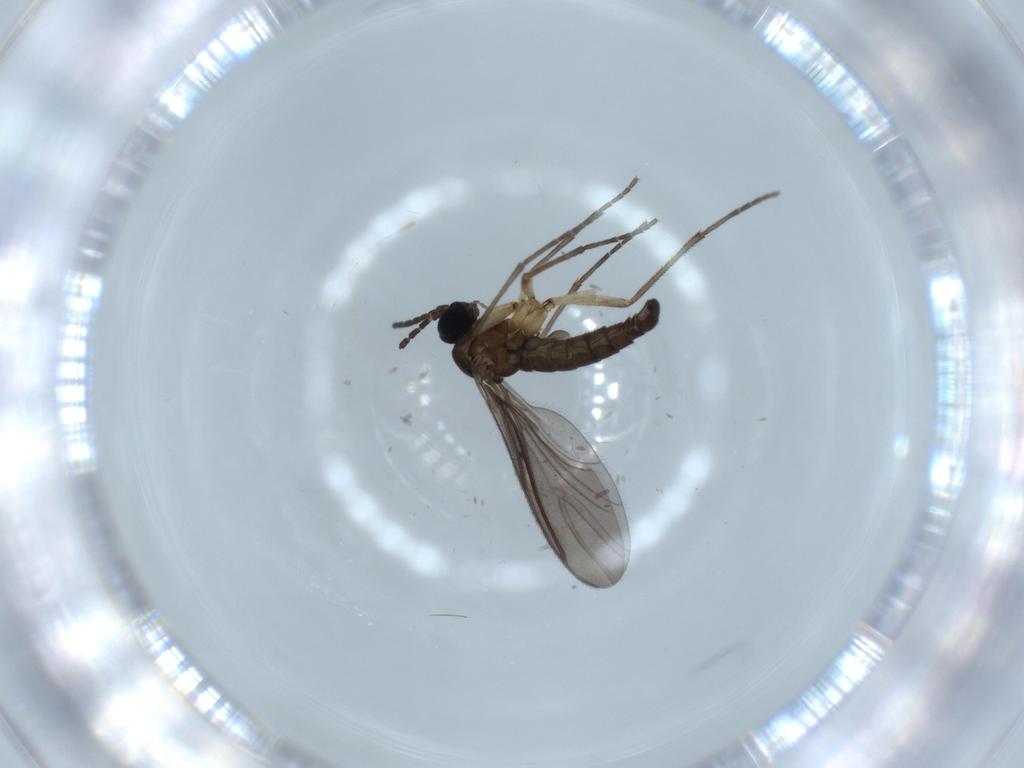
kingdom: Animalia
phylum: Arthropoda
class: Insecta
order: Diptera
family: Sciaridae
